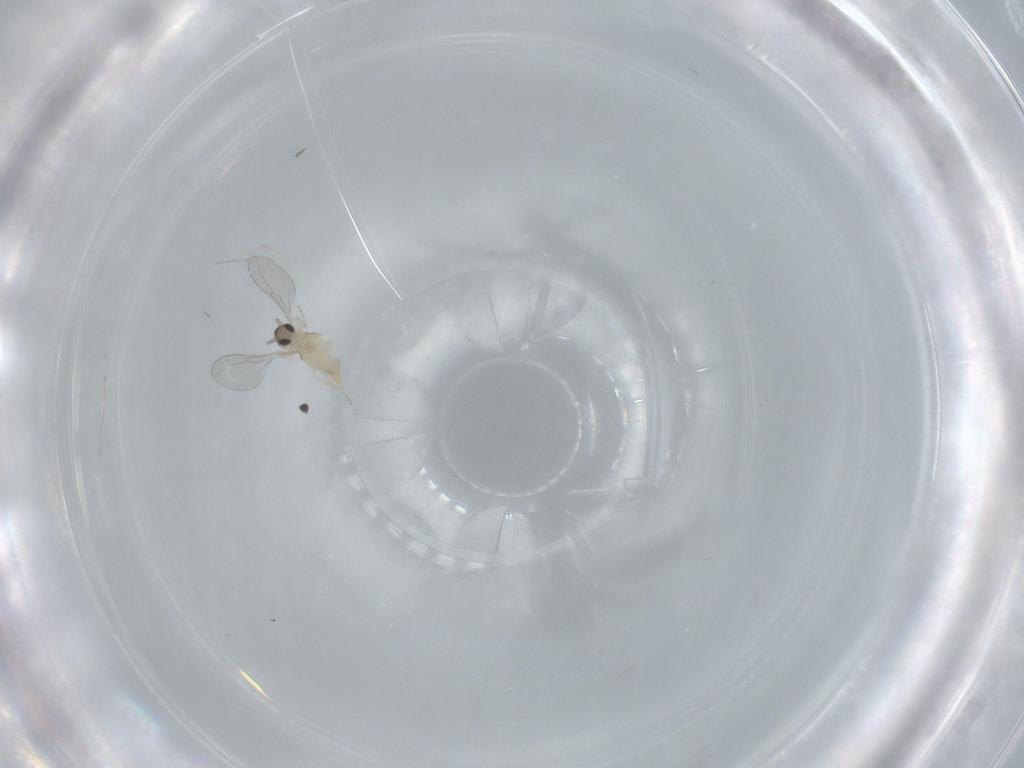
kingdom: Animalia
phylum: Arthropoda
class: Insecta
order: Diptera
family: Cecidomyiidae
